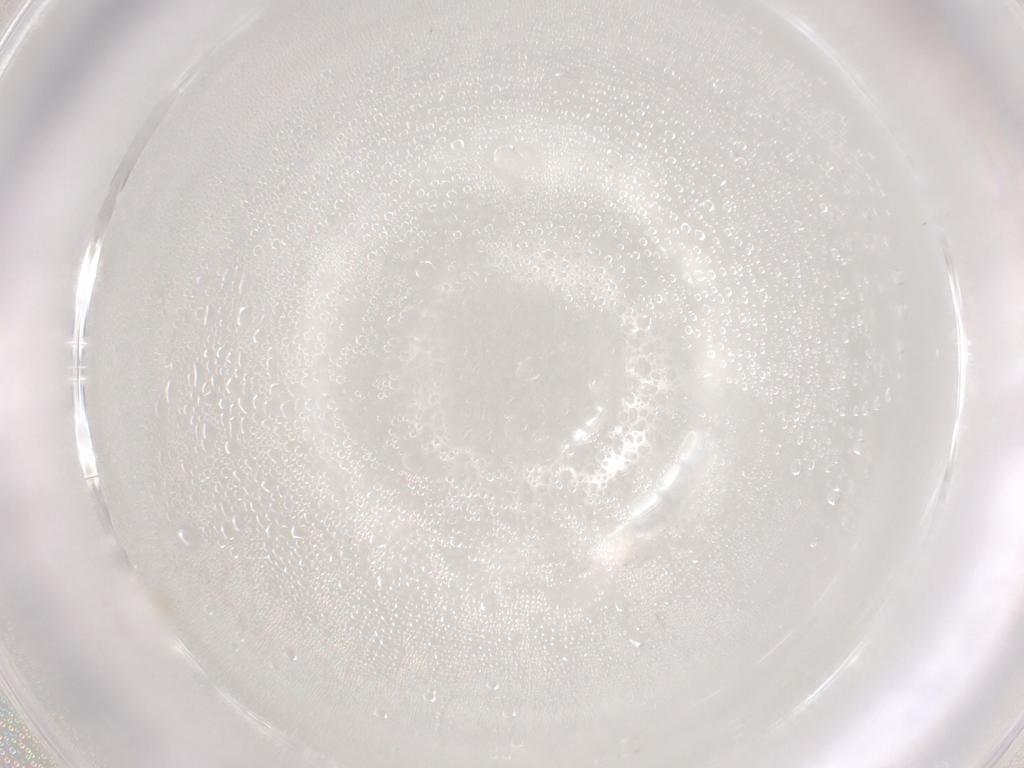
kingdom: Animalia
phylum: Arthropoda
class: Arachnida
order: Araneae
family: Araneidae
